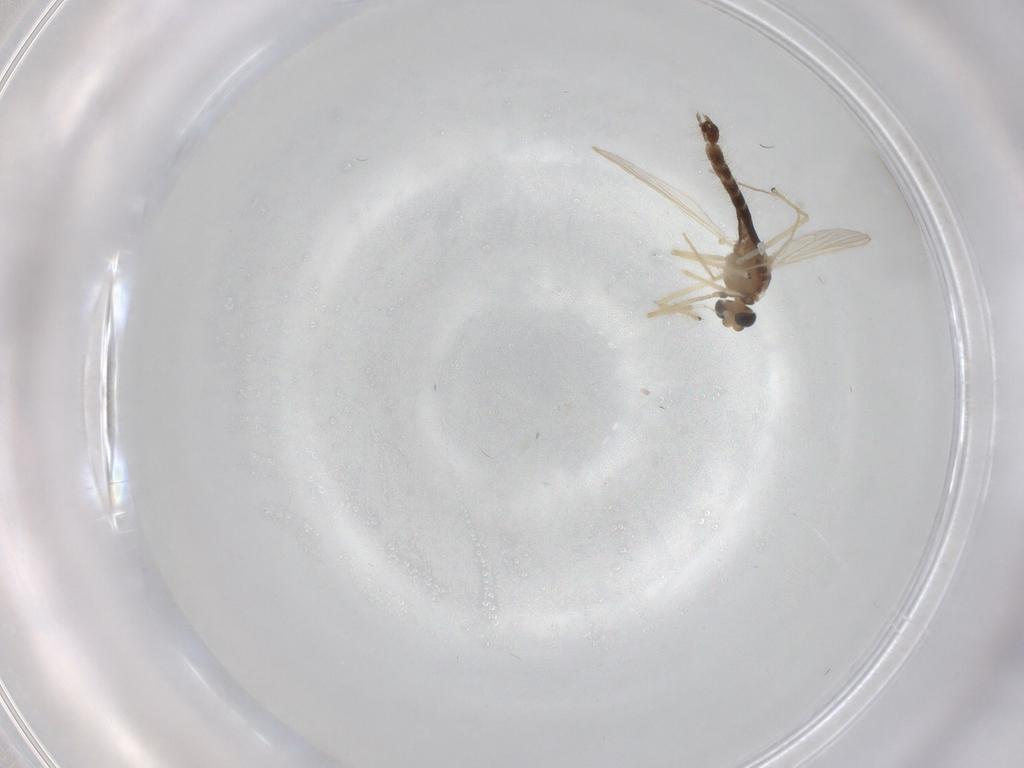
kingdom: Animalia
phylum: Arthropoda
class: Insecta
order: Diptera
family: Chironomidae
